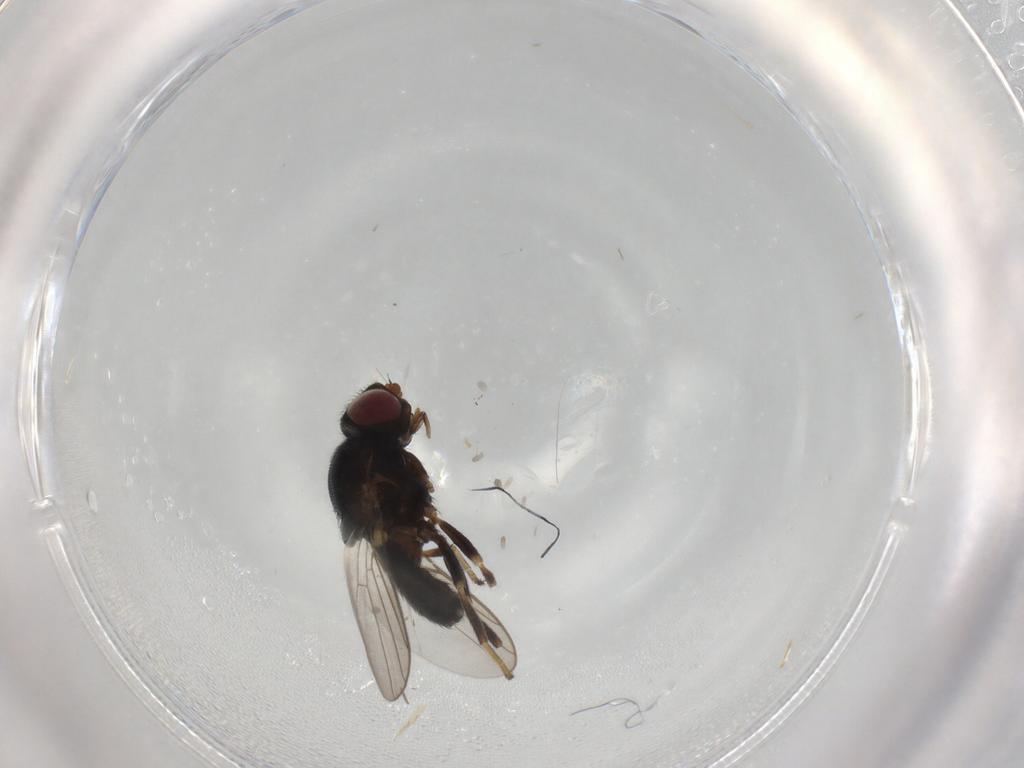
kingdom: Animalia
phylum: Arthropoda
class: Insecta
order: Diptera
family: Chloropidae
